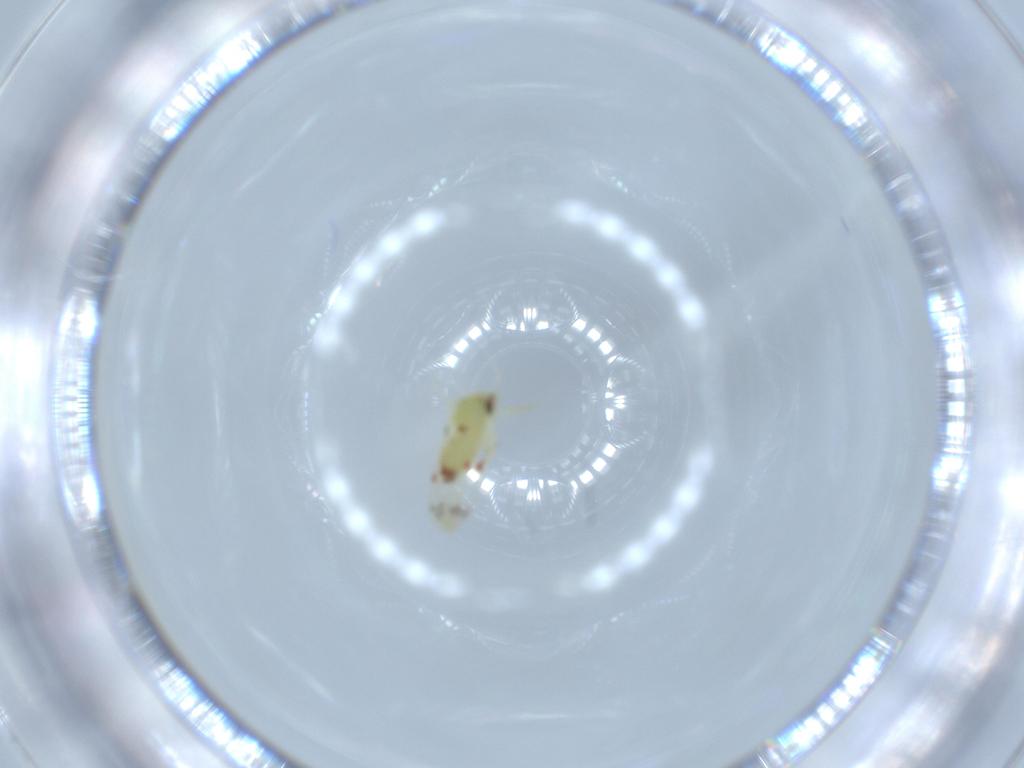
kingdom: Animalia
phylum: Arthropoda
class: Insecta
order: Hemiptera
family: Aleyrodidae
